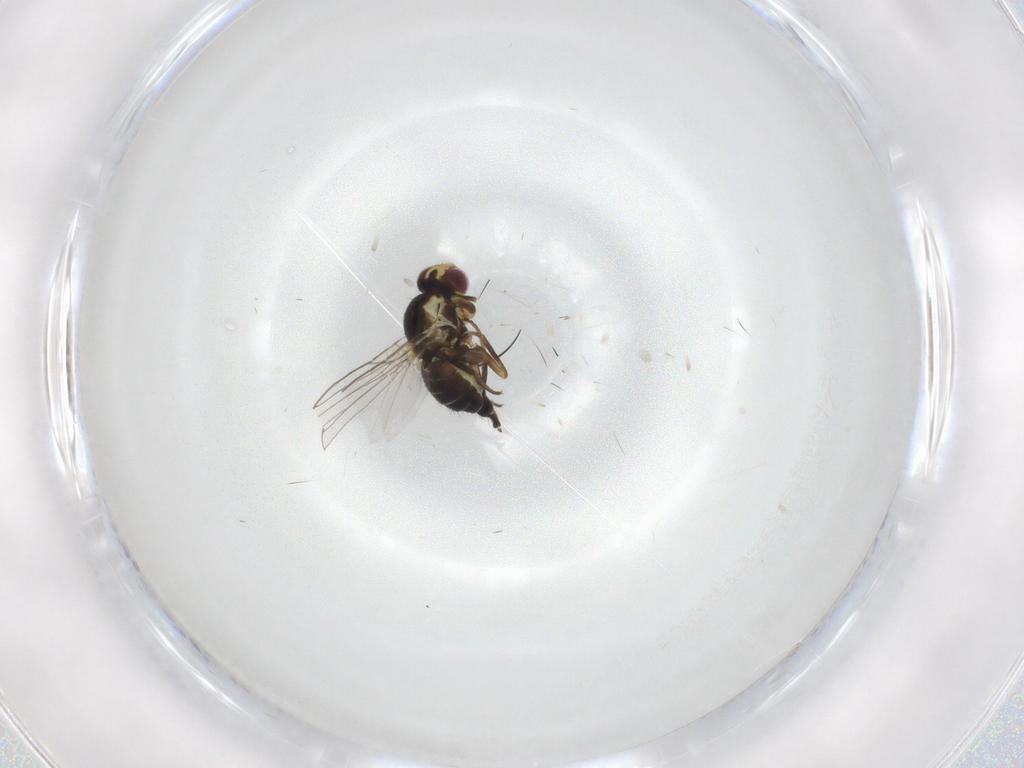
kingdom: Animalia
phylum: Arthropoda
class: Insecta
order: Diptera
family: Agromyzidae
